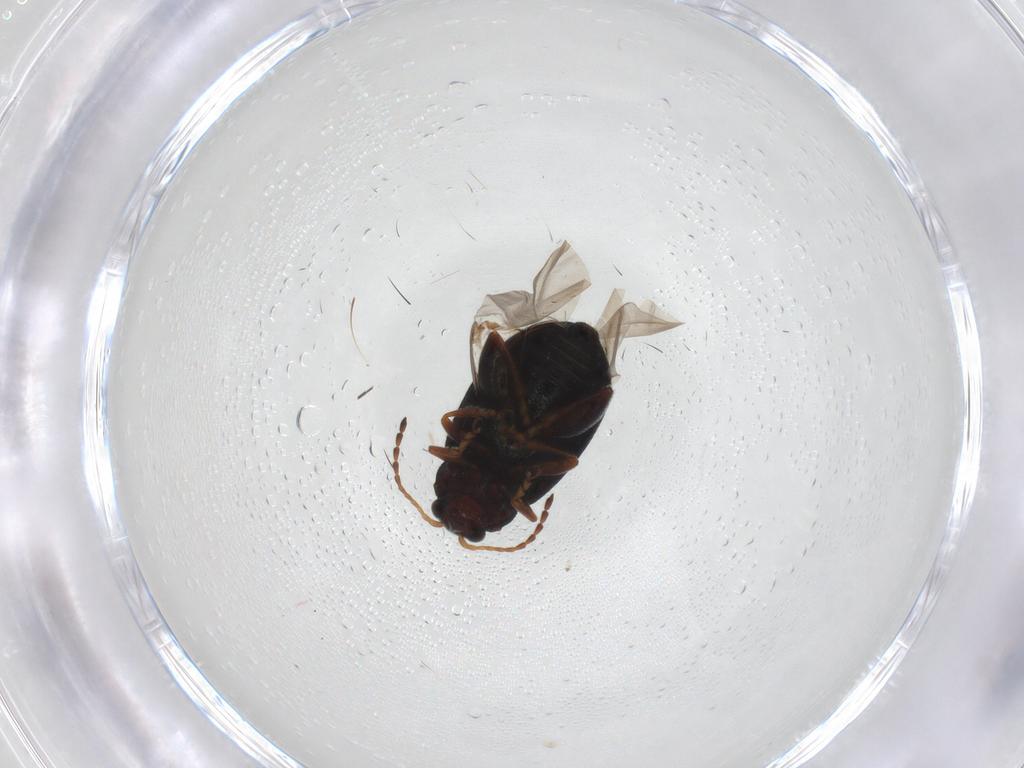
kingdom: Animalia
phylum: Arthropoda
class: Insecta
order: Coleoptera
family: Chrysomelidae
